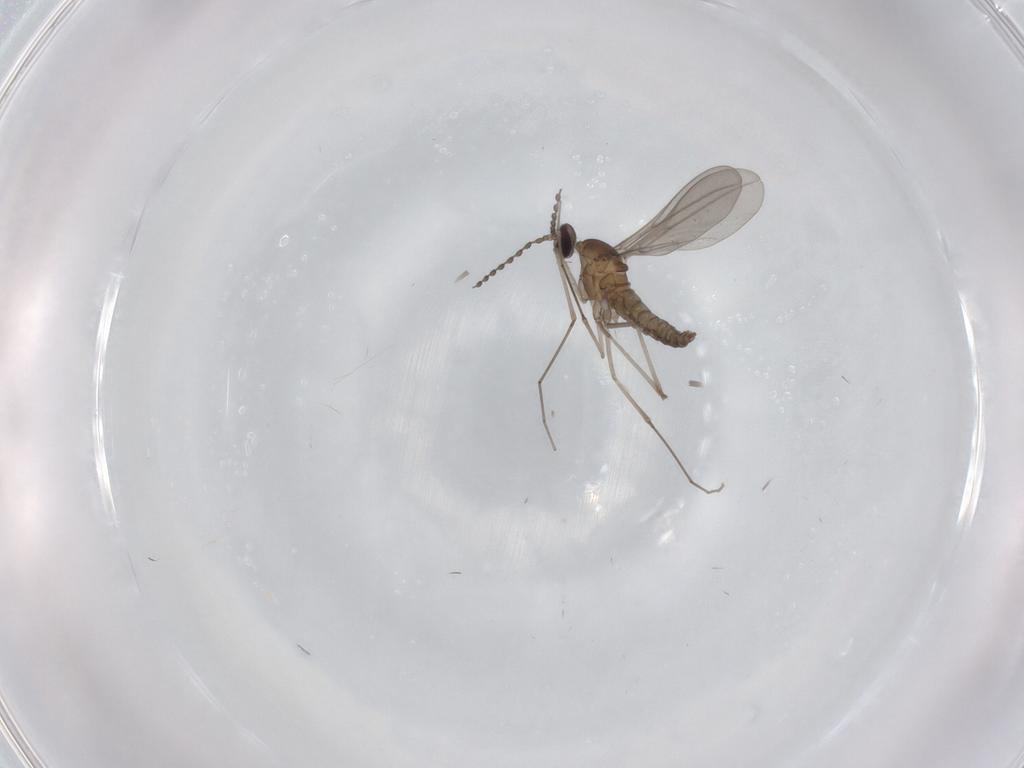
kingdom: Animalia
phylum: Arthropoda
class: Insecta
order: Diptera
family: Cecidomyiidae
